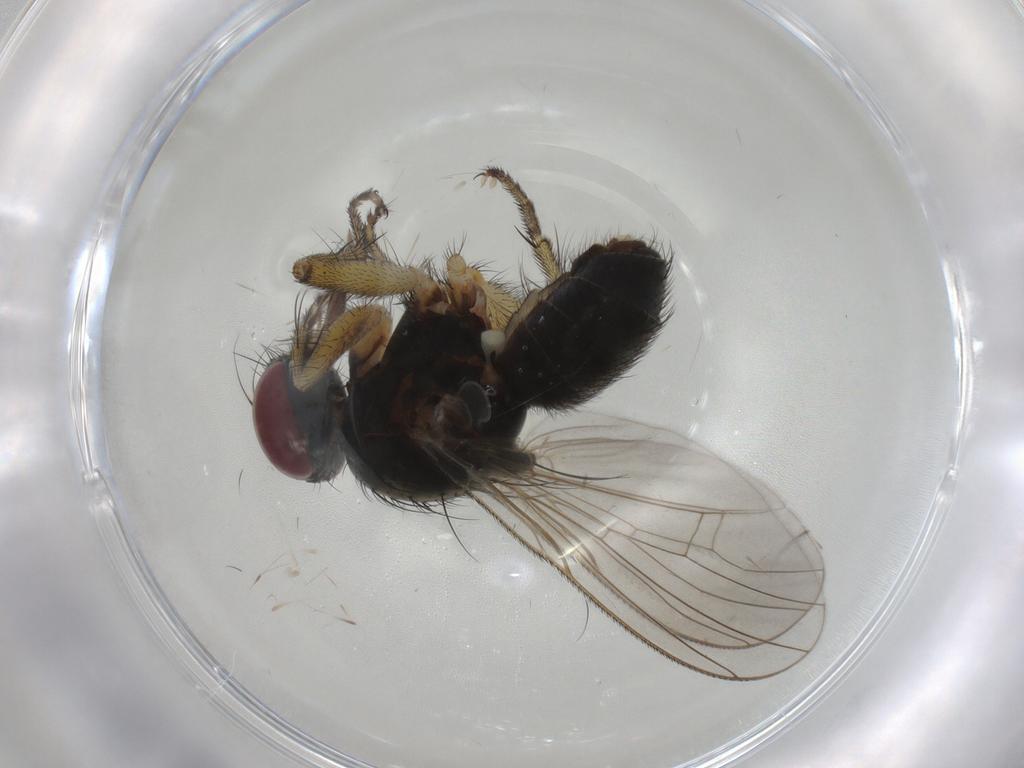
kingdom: Animalia
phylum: Arthropoda
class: Insecta
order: Diptera
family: Muscidae
